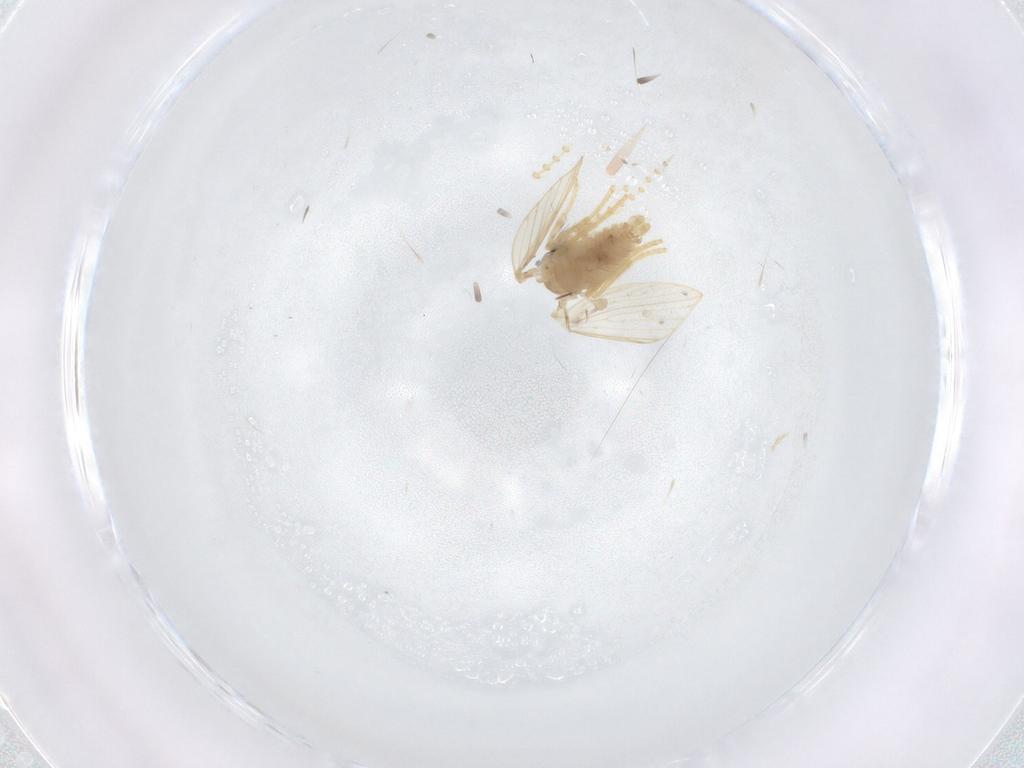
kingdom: Animalia
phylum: Arthropoda
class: Insecta
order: Diptera
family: Psychodidae
